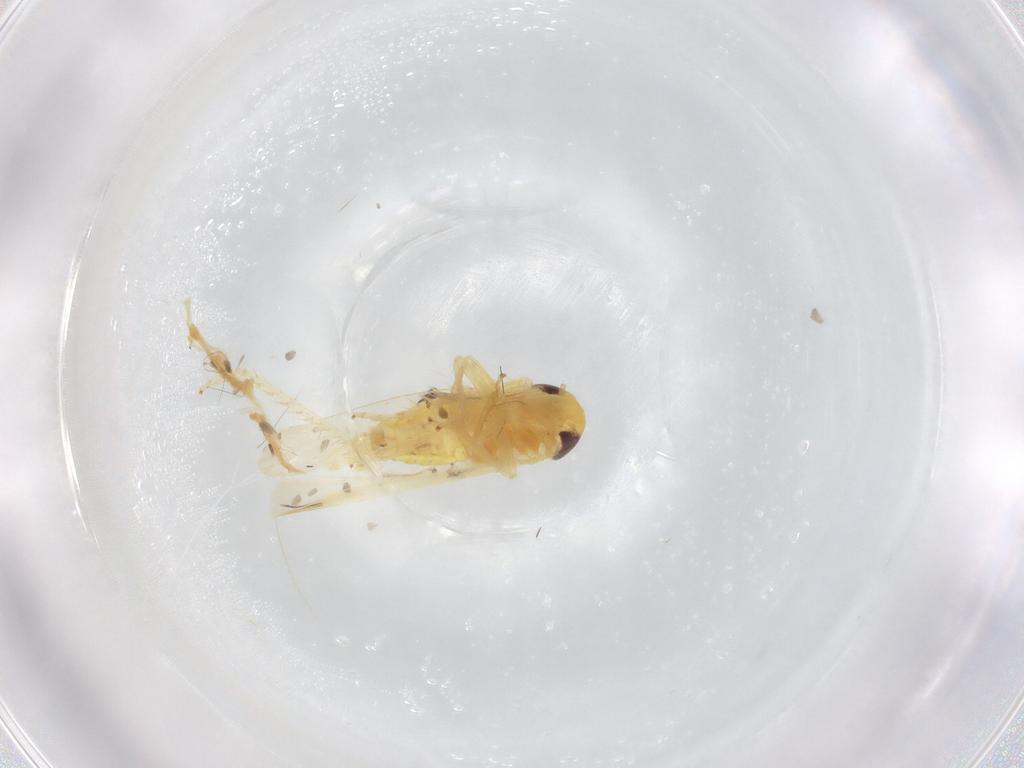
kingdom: Animalia
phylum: Arthropoda
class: Insecta
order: Hemiptera
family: Cicadellidae
